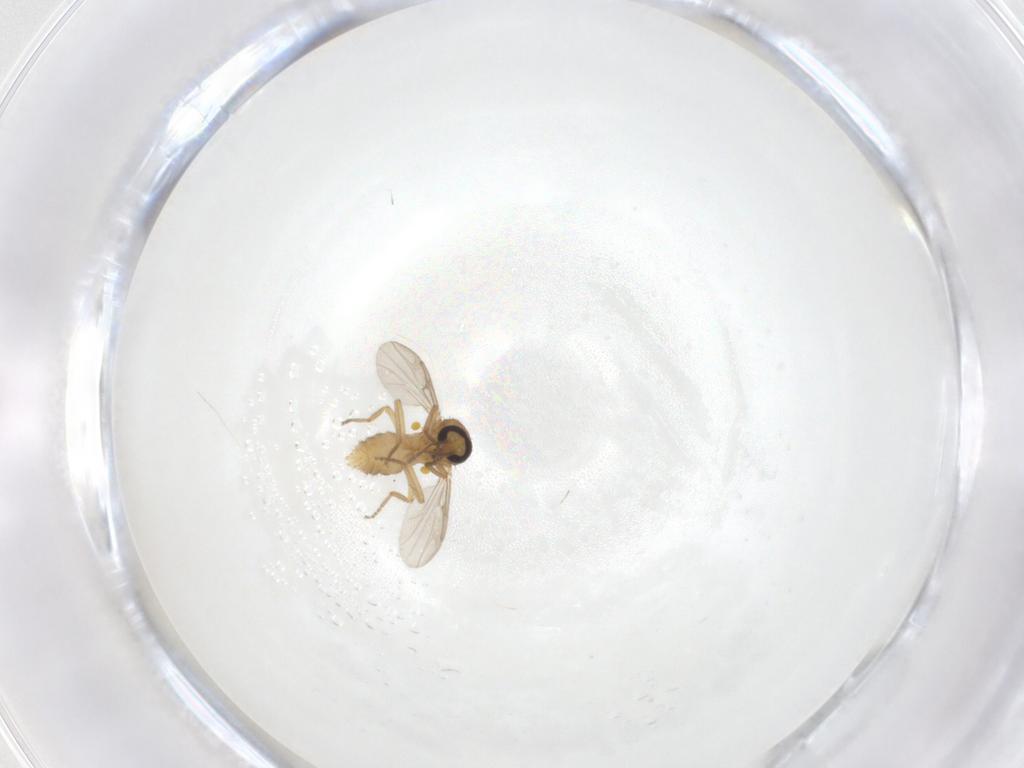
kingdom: Animalia
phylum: Arthropoda
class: Insecta
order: Diptera
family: Ceratopogonidae
